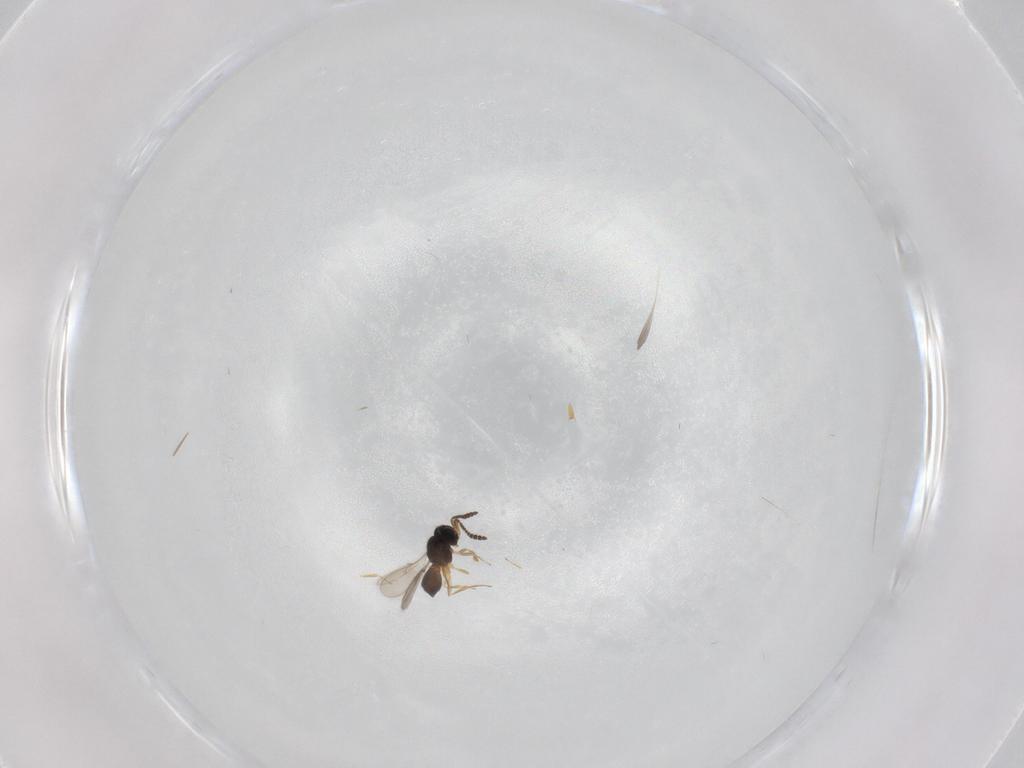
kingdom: Animalia
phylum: Arthropoda
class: Insecta
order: Hymenoptera
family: Scelionidae
